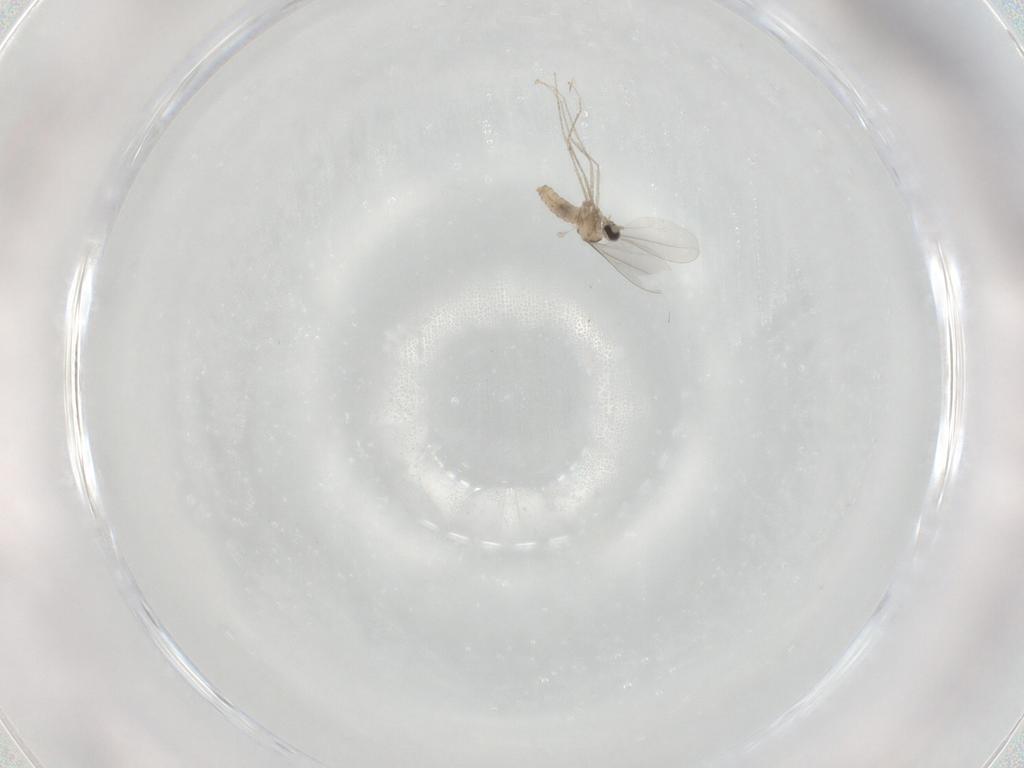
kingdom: Animalia
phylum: Arthropoda
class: Insecta
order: Diptera
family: Cecidomyiidae
